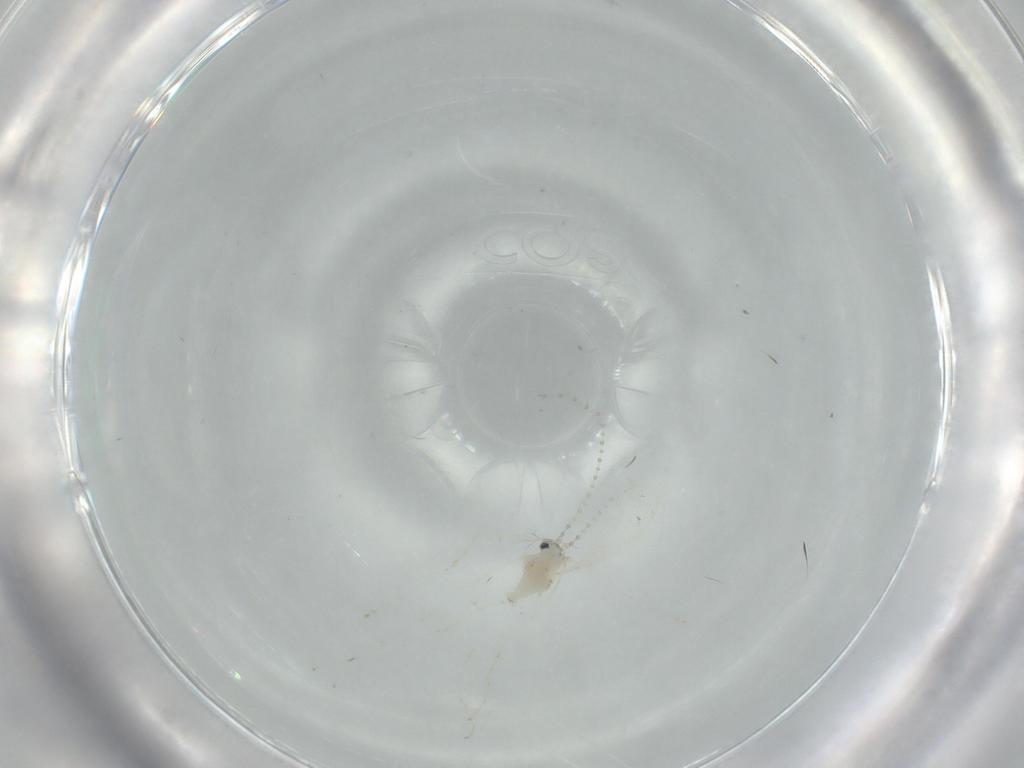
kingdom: Animalia
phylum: Arthropoda
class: Insecta
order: Diptera
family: Cecidomyiidae
